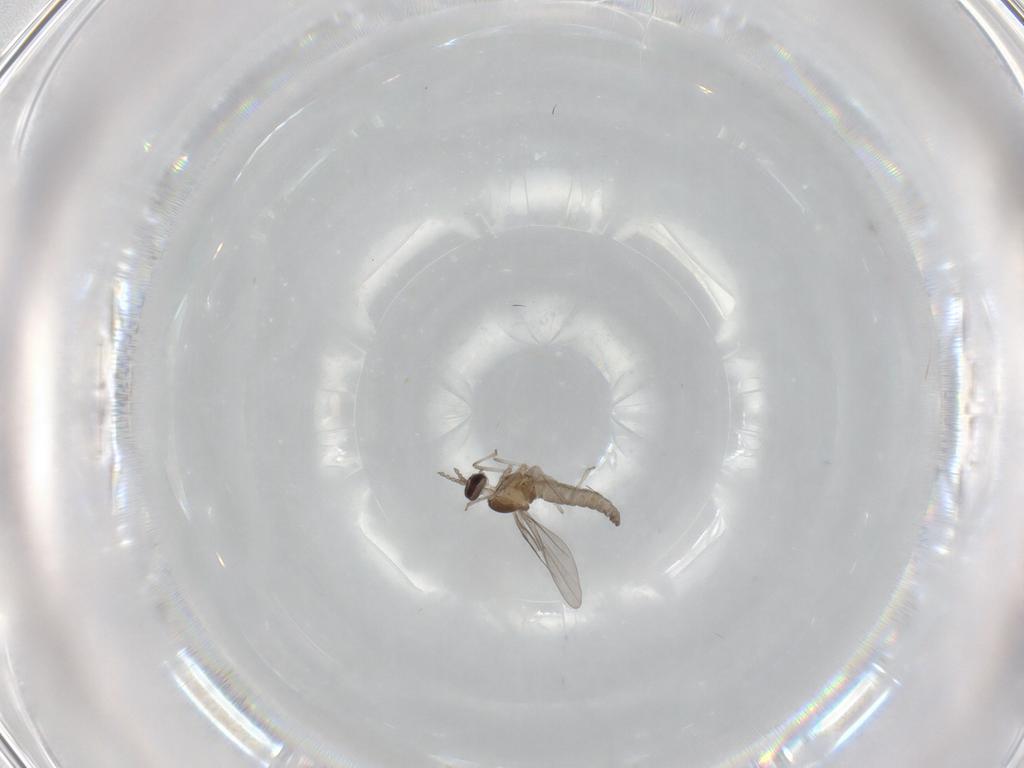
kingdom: Animalia
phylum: Arthropoda
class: Insecta
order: Diptera
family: Cecidomyiidae
